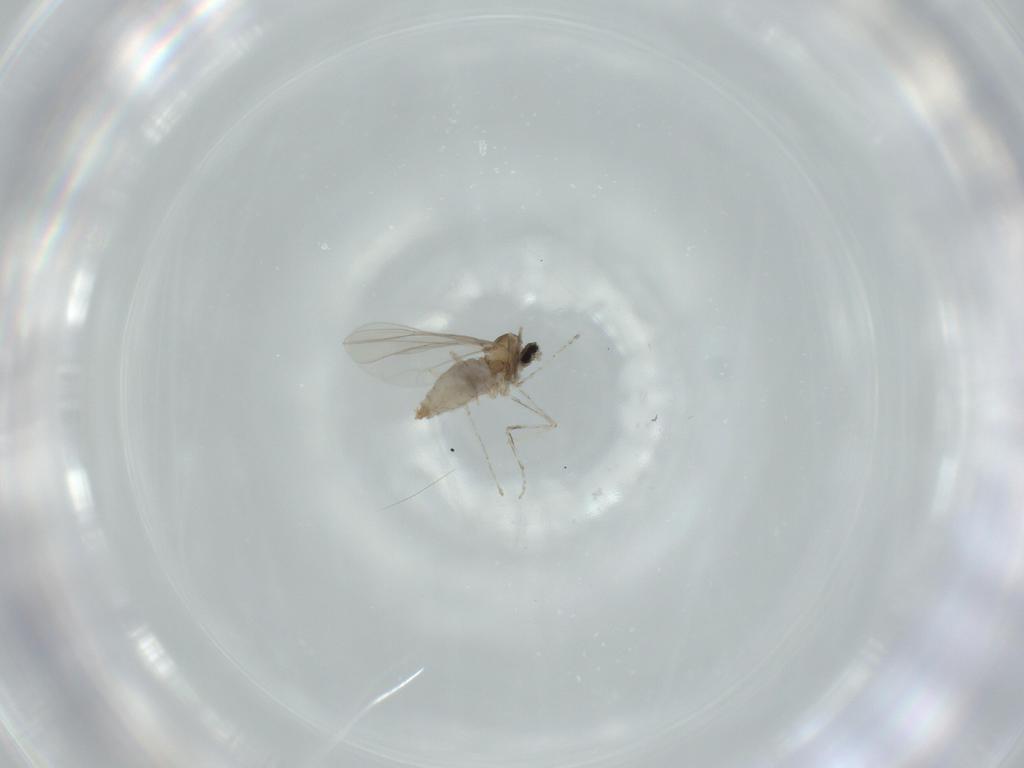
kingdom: Animalia
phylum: Arthropoda
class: Insecta
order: Diptera
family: Cecidomyiidae
